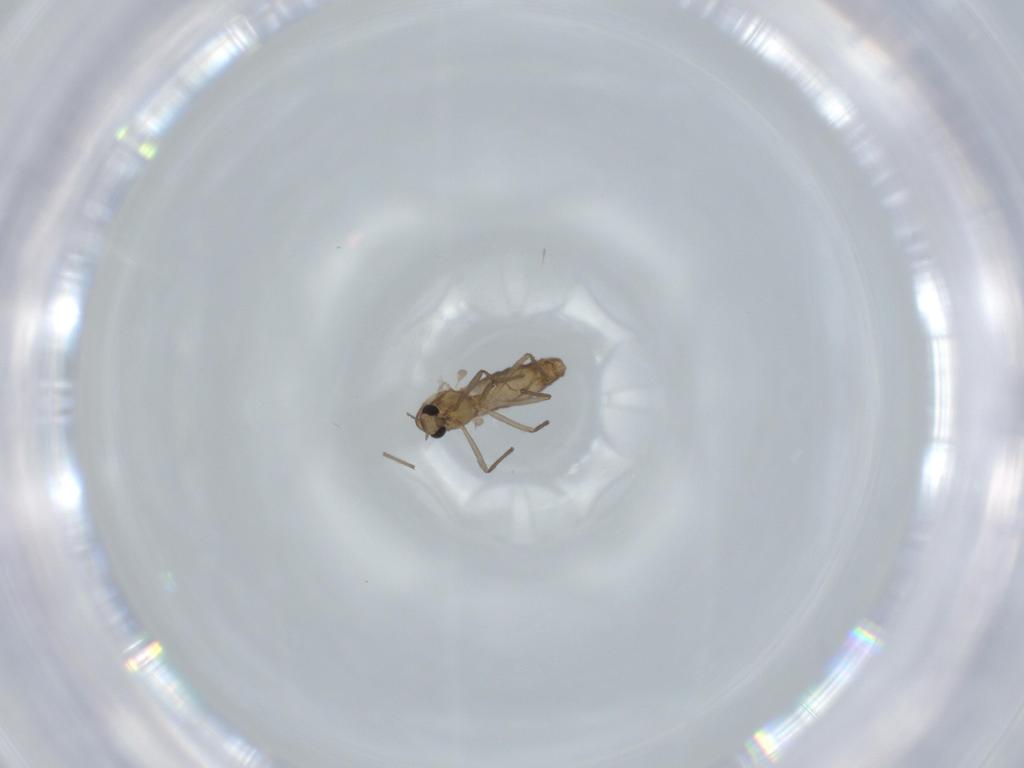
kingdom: Animalia
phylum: Arthropoda
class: Insecta
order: Diptera
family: Chironomidae
